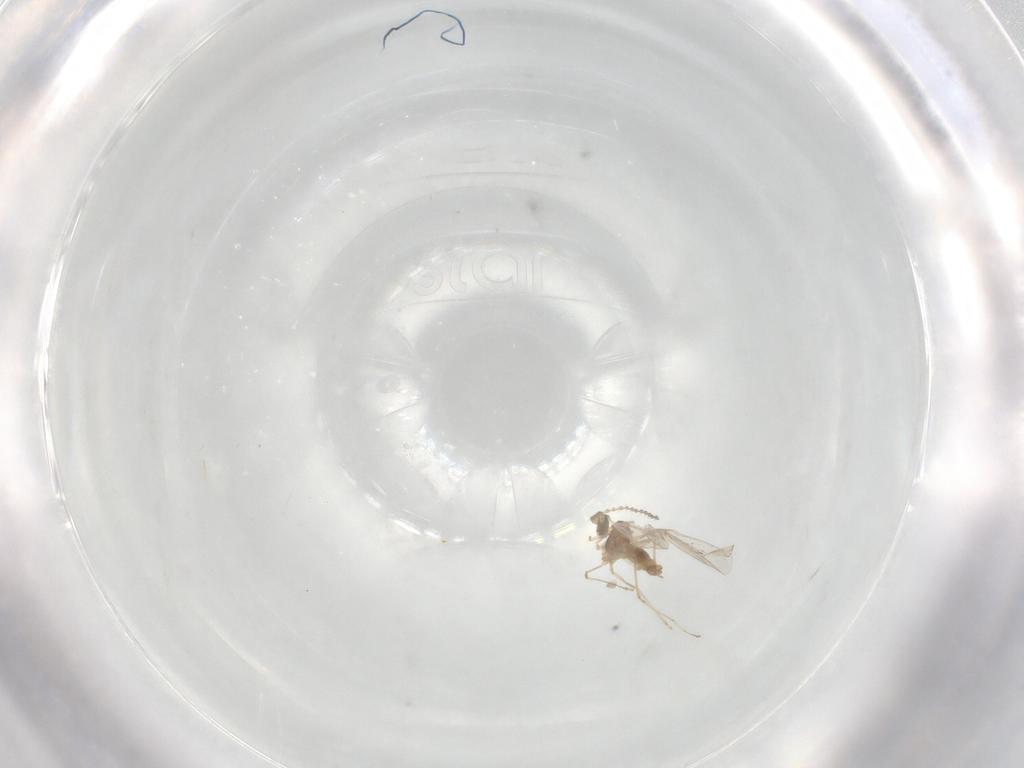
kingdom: Animalia
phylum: Arthropoda
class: Insecta
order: Diptera
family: Cecidomyiidae
